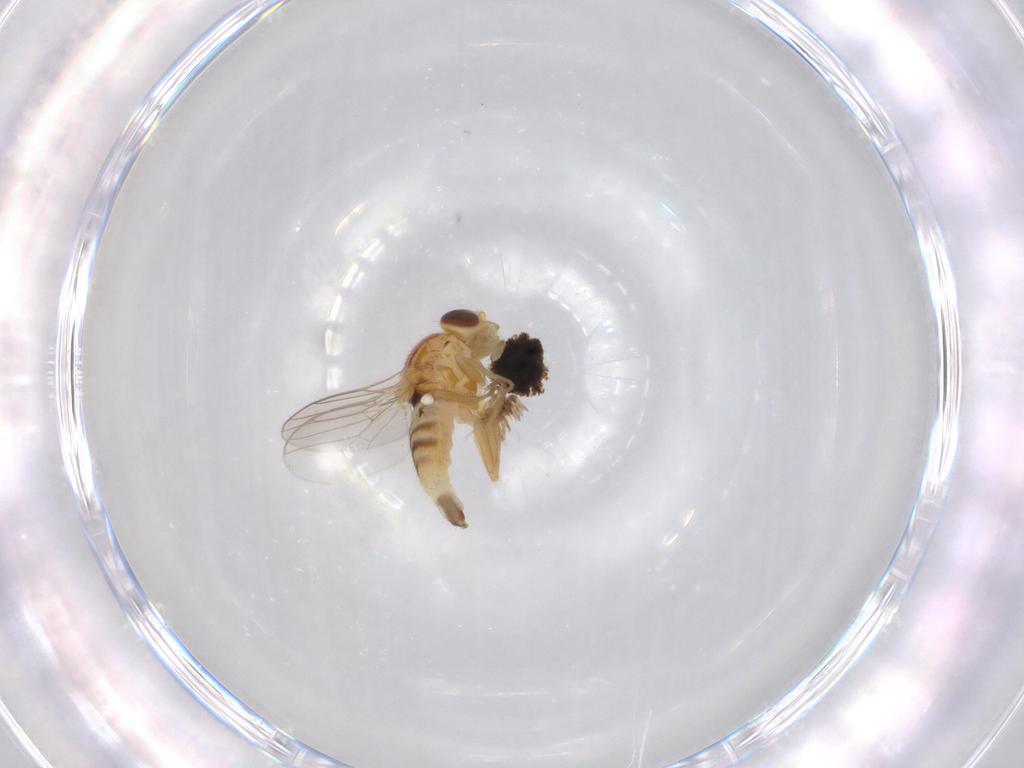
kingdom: Animalia
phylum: Arthropoda
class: Insecta
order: Diptera
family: Chloropidae
